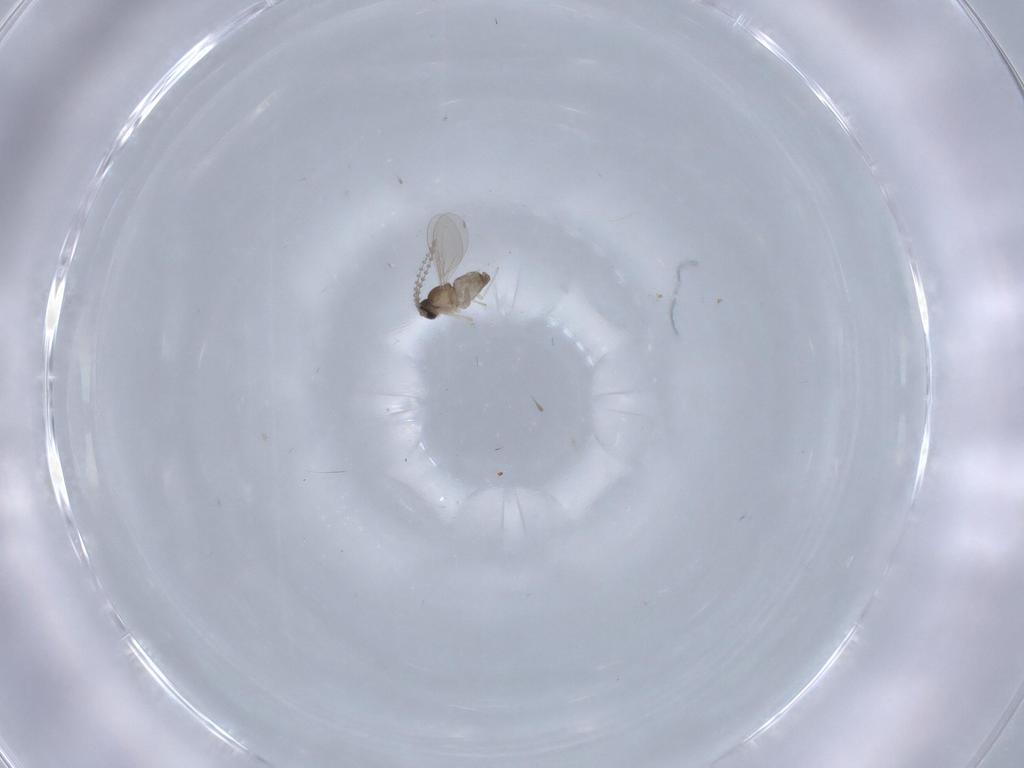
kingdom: Animalia
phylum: Arthropoda
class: Insecta
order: Diptera
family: Cecidomyiidae
